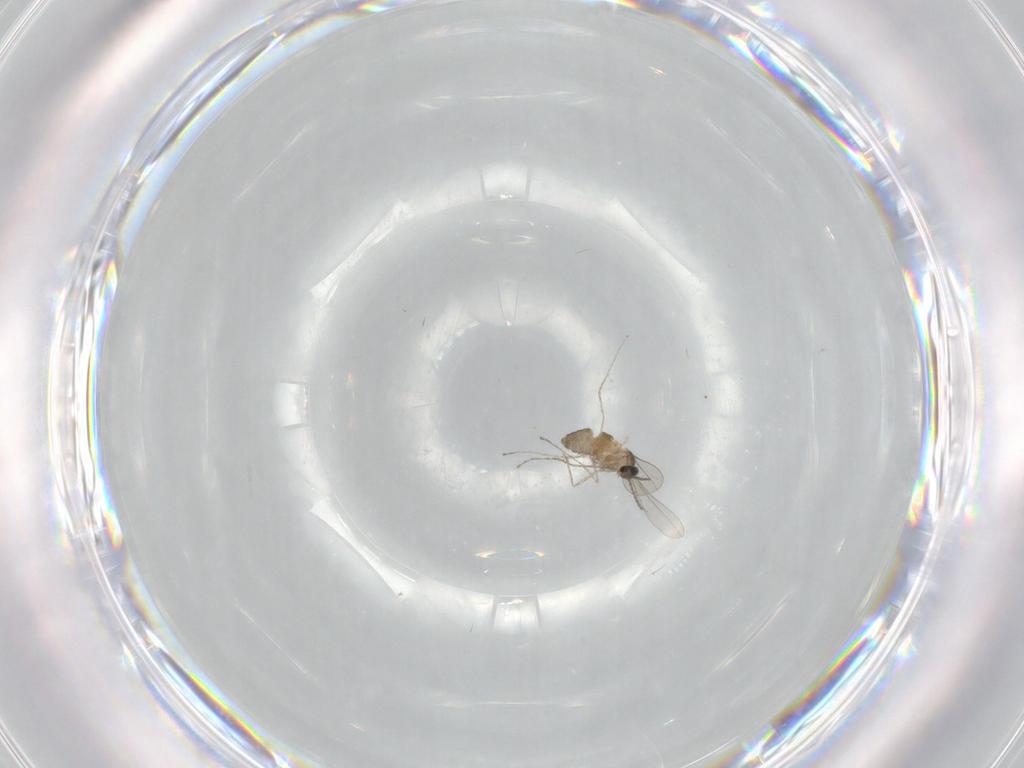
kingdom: Animalia
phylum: Arthropoda
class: Insecta
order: Diptera
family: Cecidomyiidae
